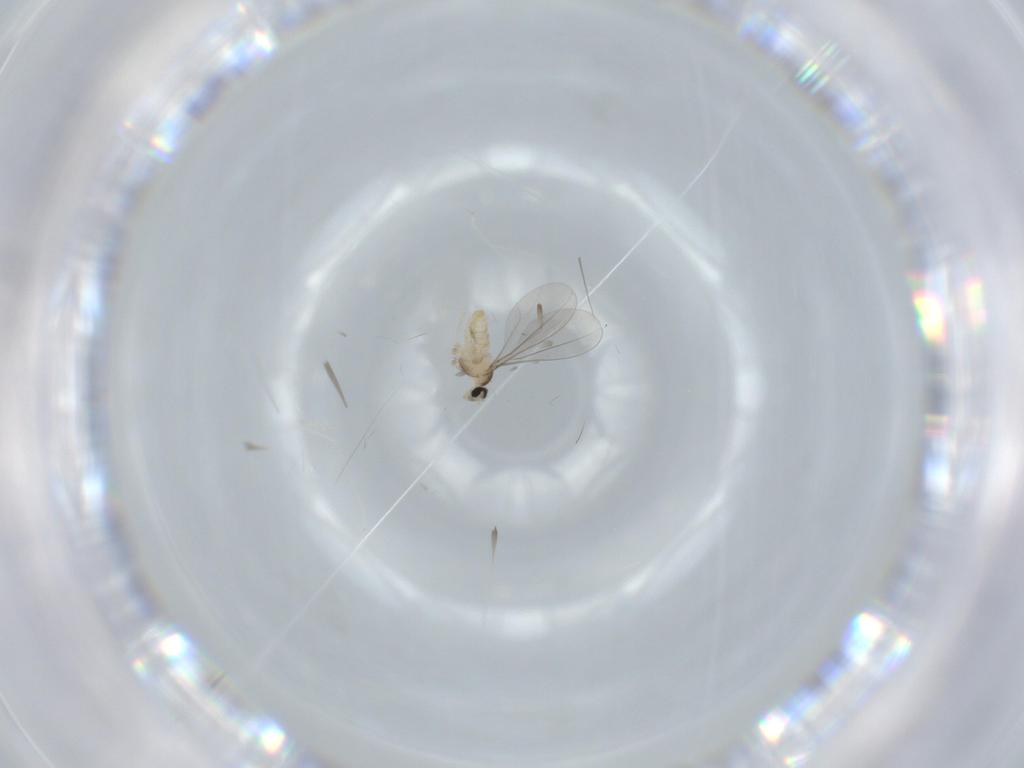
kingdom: Animalia
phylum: Arthropoda
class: Insecta
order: Diptera
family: Cecidomyiidae
